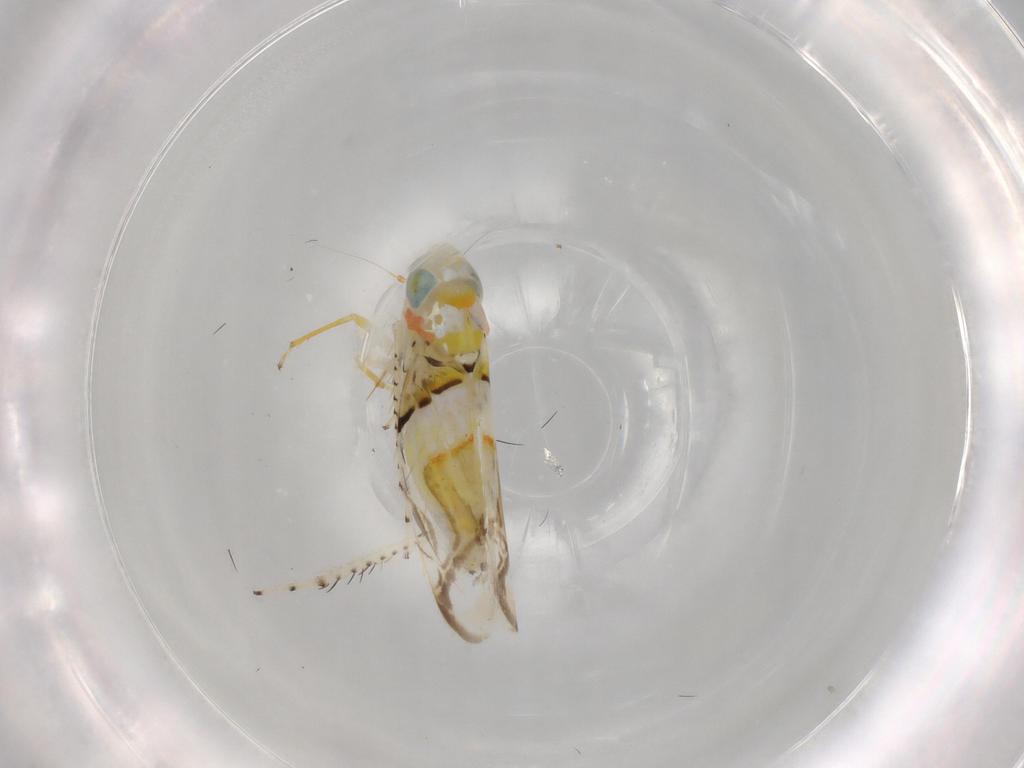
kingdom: Animalia
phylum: Arthropoda
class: Insecta
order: Hemiptera
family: Cicadellidae
